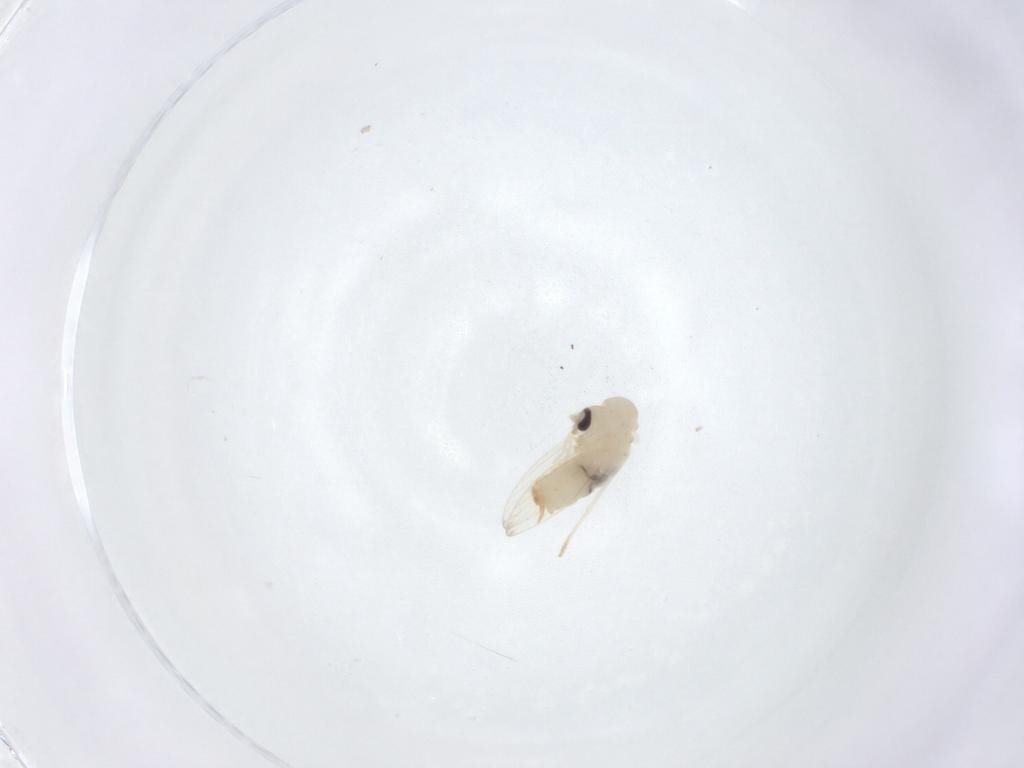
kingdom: Animalia
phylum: Arthropoda
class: Insecta
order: Diptera
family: Psychodidae
